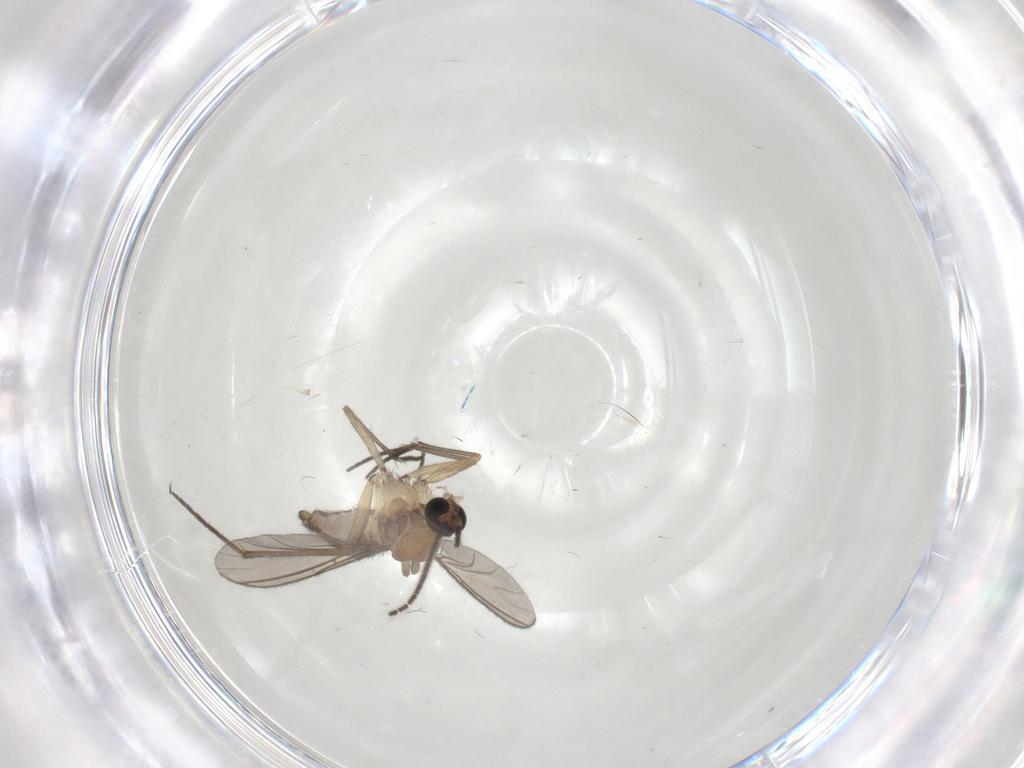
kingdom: Animalia
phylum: Arthropoda
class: Insecta
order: Diptera
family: Sciaridae
